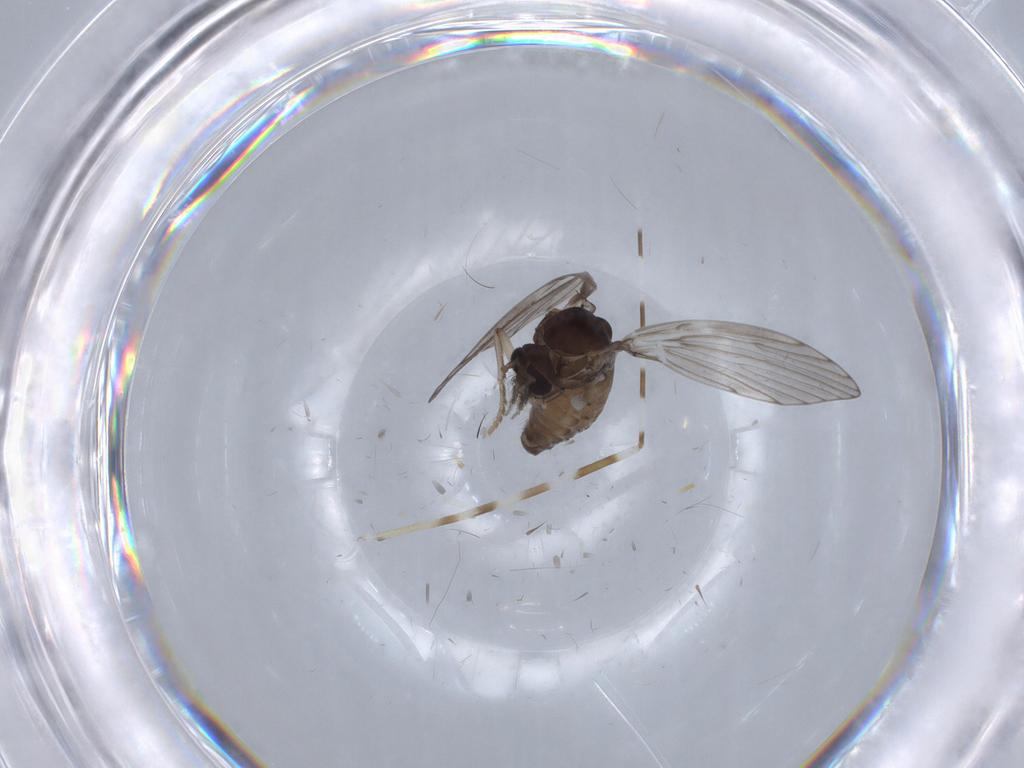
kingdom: Animalia
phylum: Arthropoda
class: Insecta
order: Diptera
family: Psychodidae
